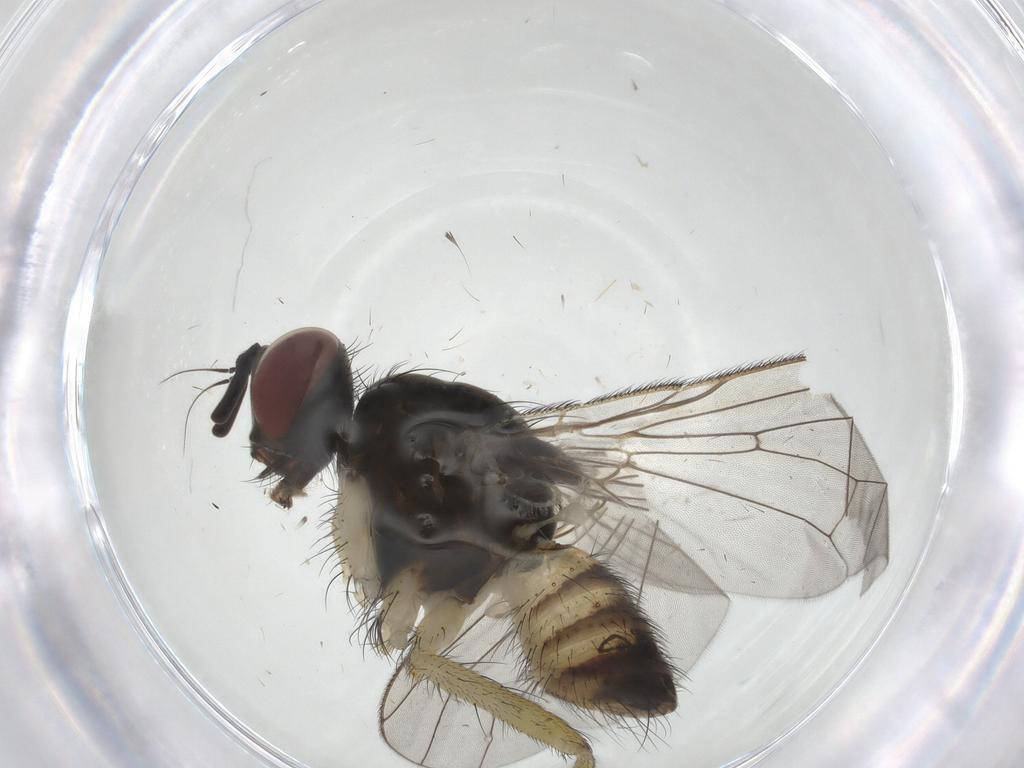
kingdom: Animalia
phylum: Arthropoda
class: Insecta
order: Diptera
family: Muscidae
